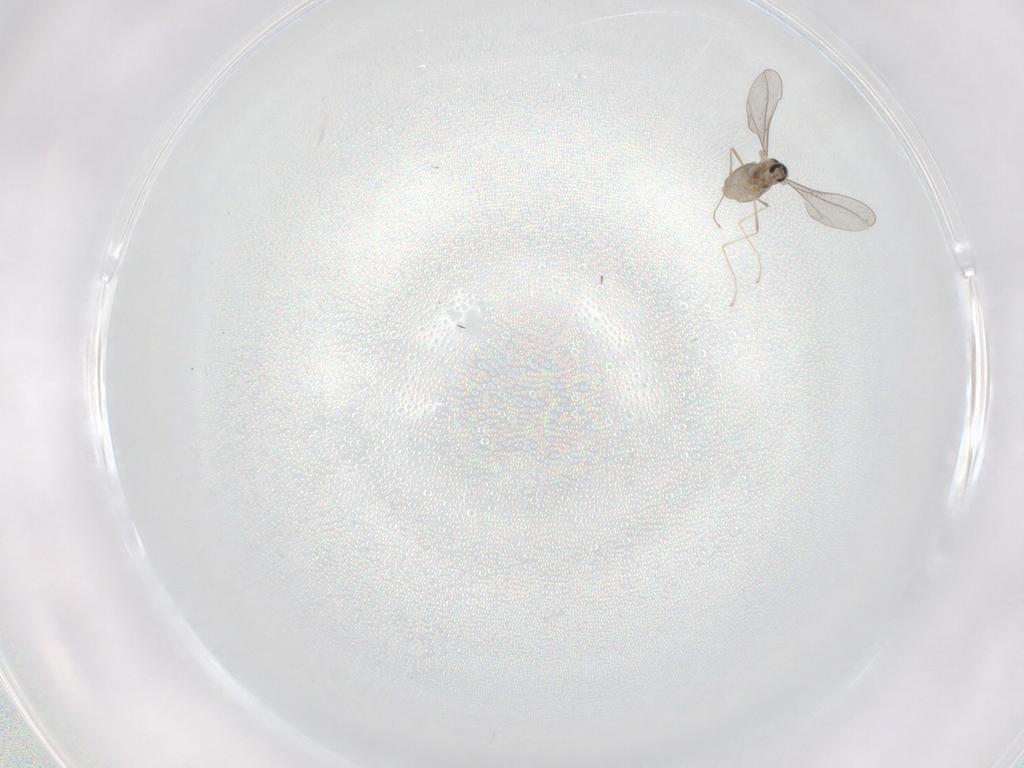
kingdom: Animalia
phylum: Arthropoda
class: Insecta
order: Diptera
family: Cecidomyiidae
